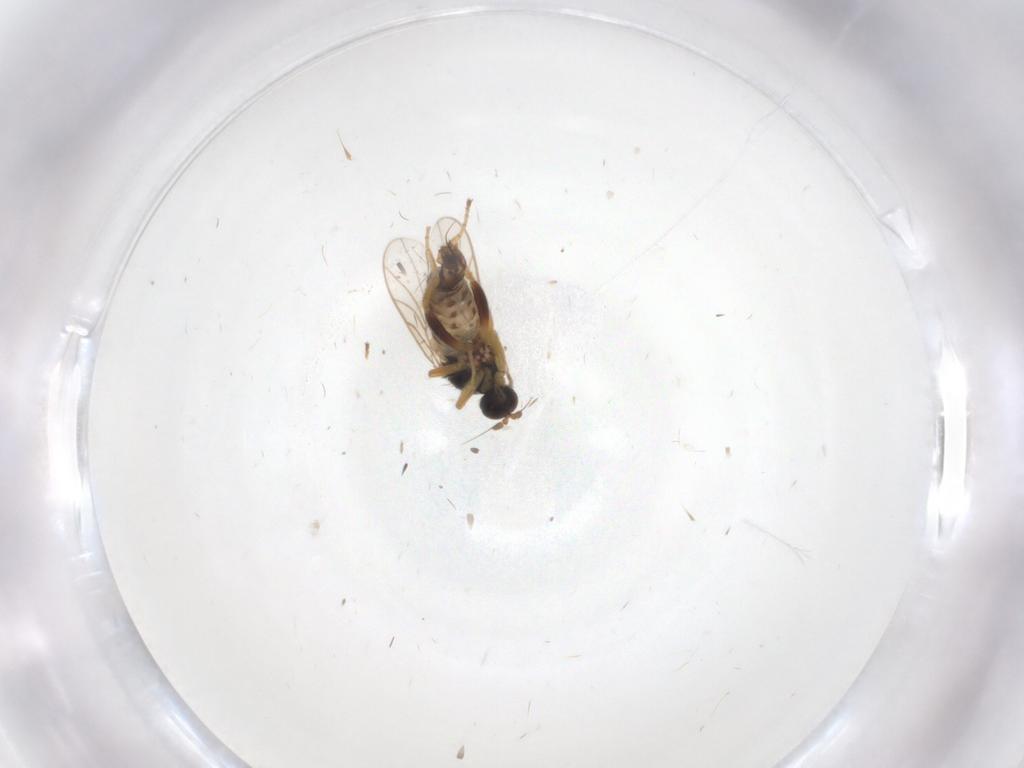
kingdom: Animalia
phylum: Arthropoda
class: Insecta
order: Diptera
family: Hybotidae
